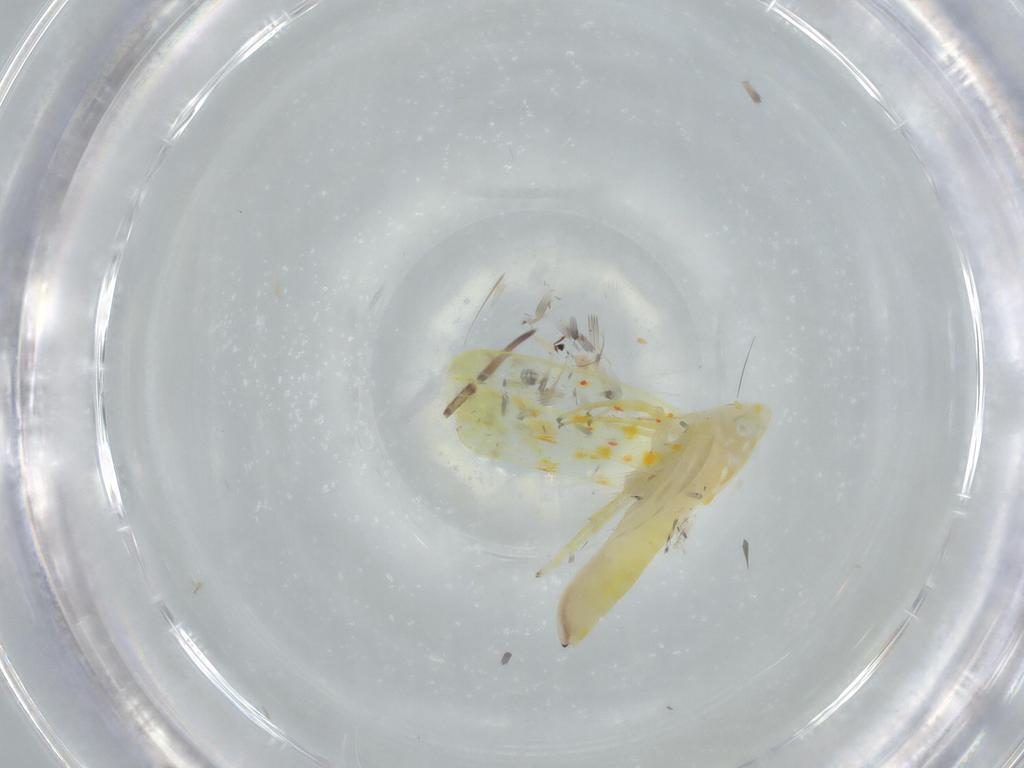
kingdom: Animalia
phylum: Arthropoda
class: Insecta
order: Hemiptera
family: Cicadellidae
